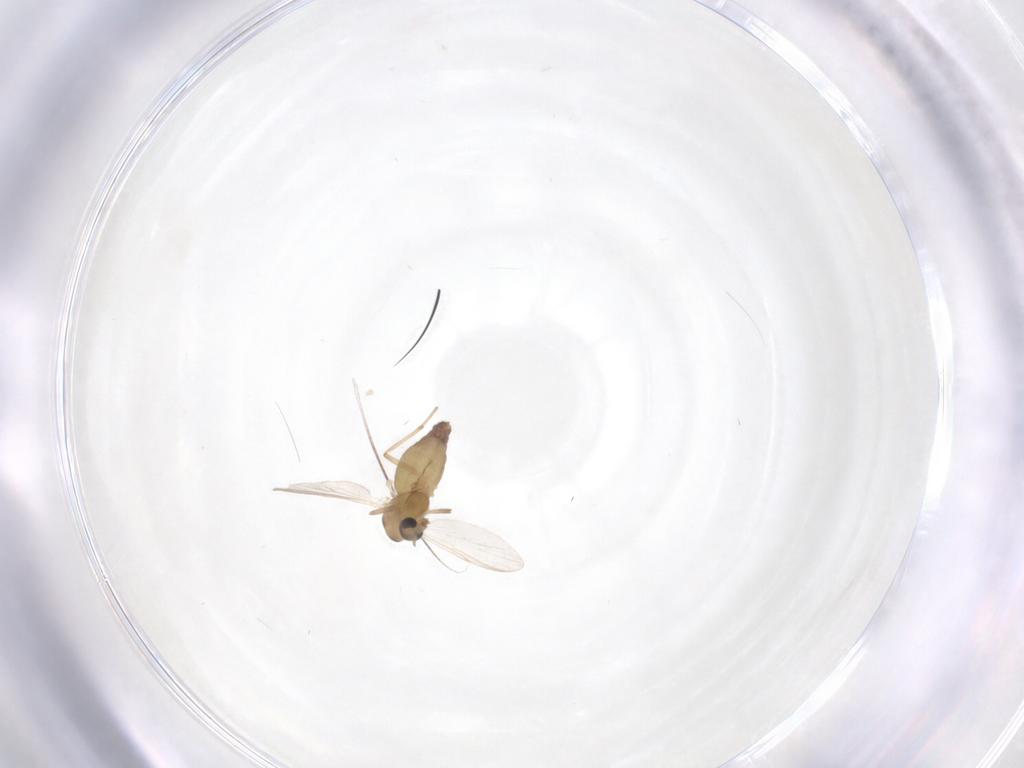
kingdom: Animalia
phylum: Arthropoda
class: Insecta
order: Diptera
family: Chironomidae
